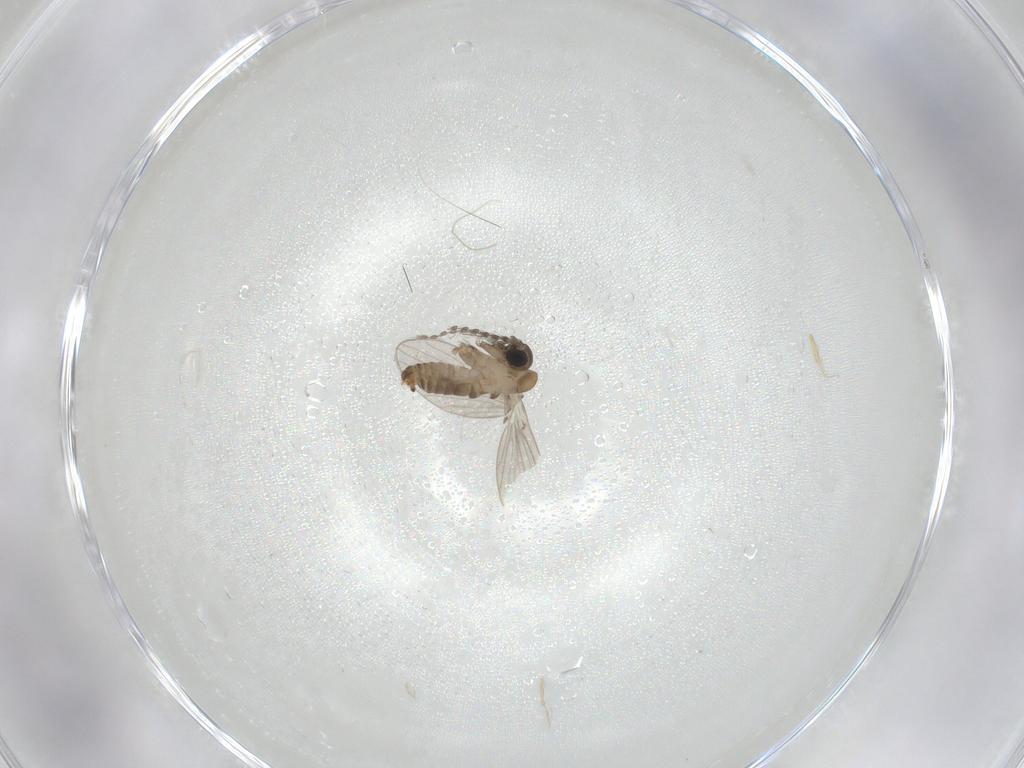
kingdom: Animalia
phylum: Arthropoda
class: Insecta
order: Diptera
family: Psychodidae
